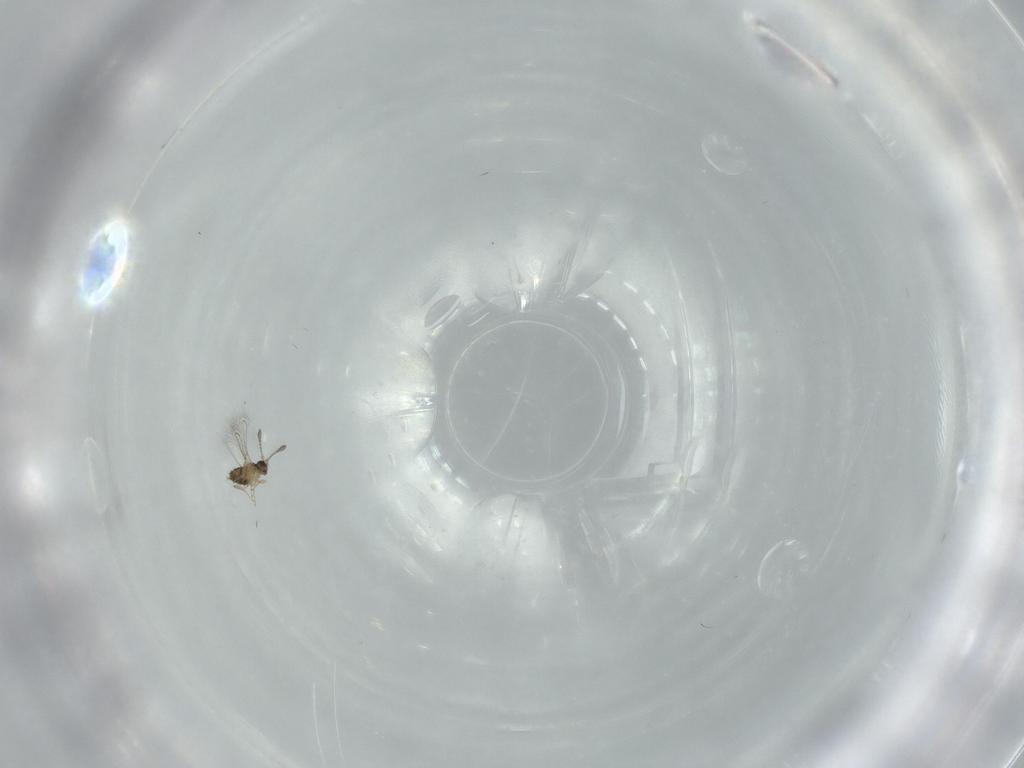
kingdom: Animalia
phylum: Arthropoda
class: Insecta
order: Hymenoptera
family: Mymaridae
